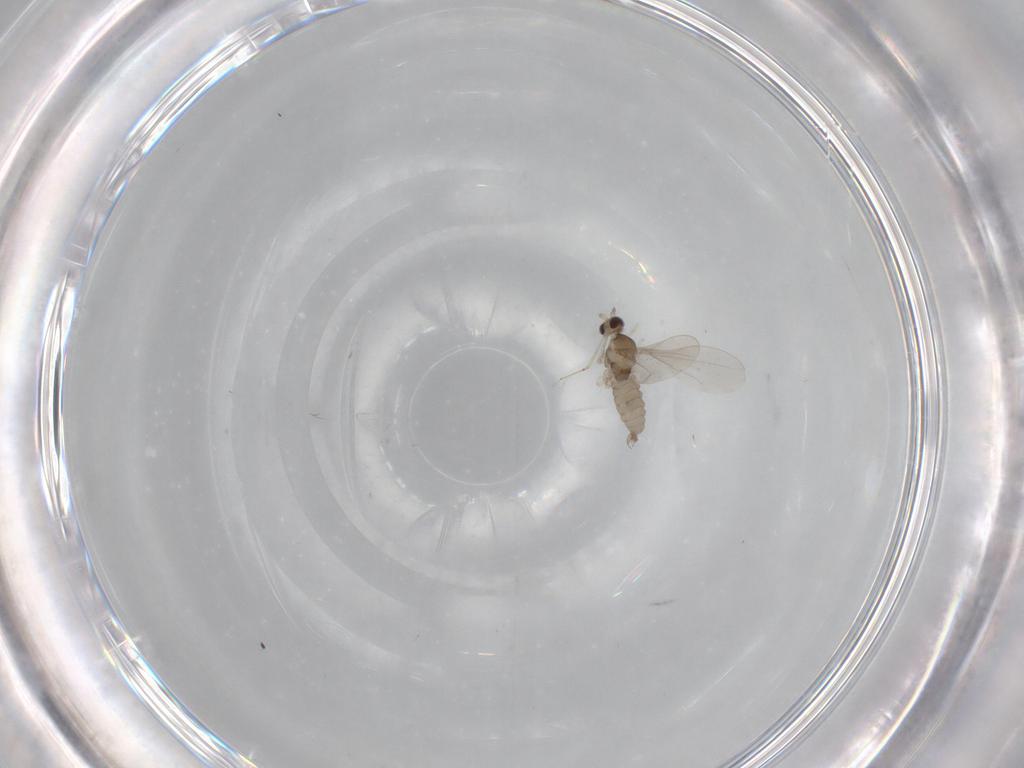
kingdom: Animalia
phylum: Arthropoda
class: Insecta
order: Diptera
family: Cecidomyiidae
